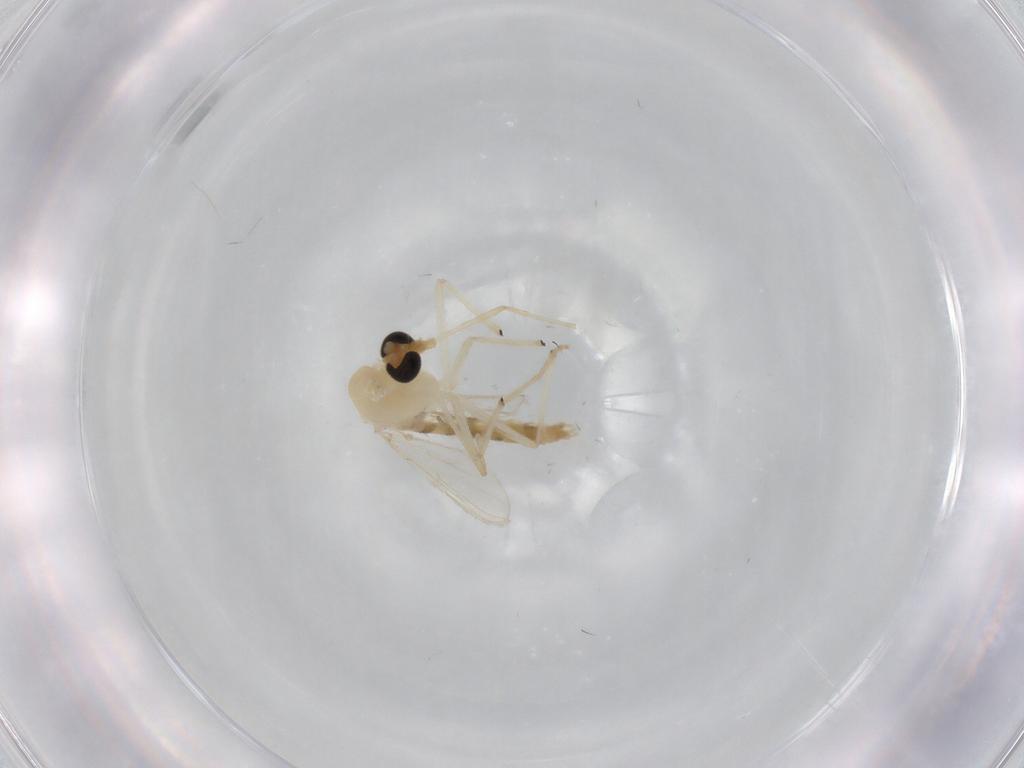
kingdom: Animalia
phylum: Arthropoda
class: Insecta
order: Diptera
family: Chironomidae
